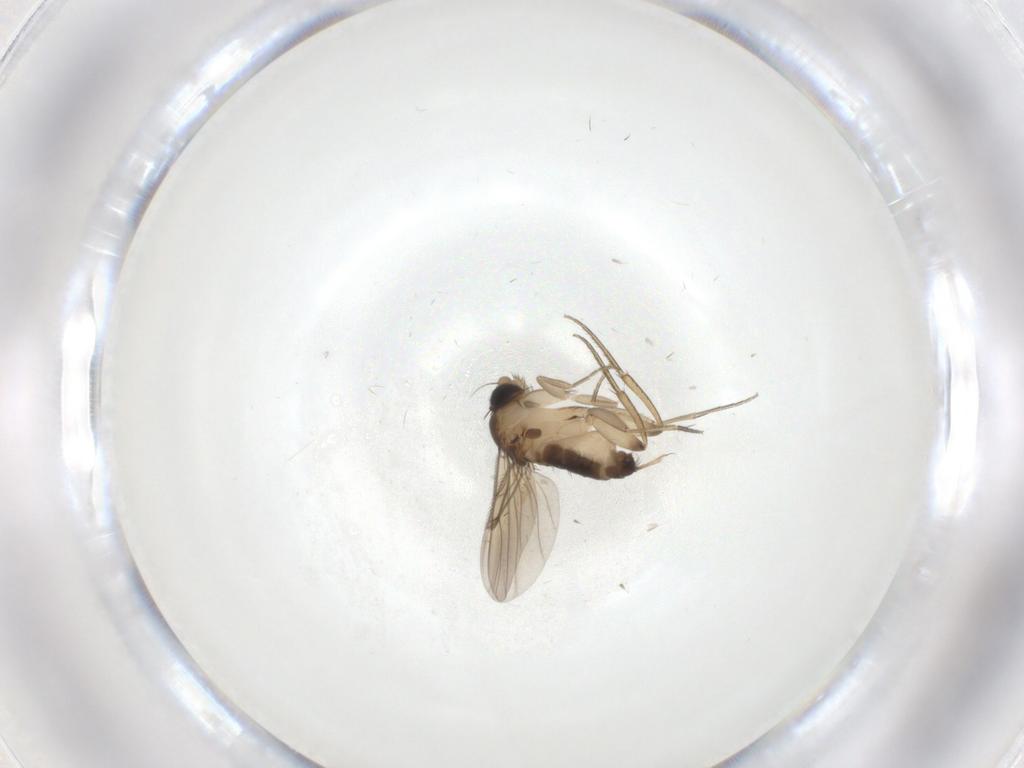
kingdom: Animalia
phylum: Arthropoda
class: Insecta
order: Diptera
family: Phoridae
